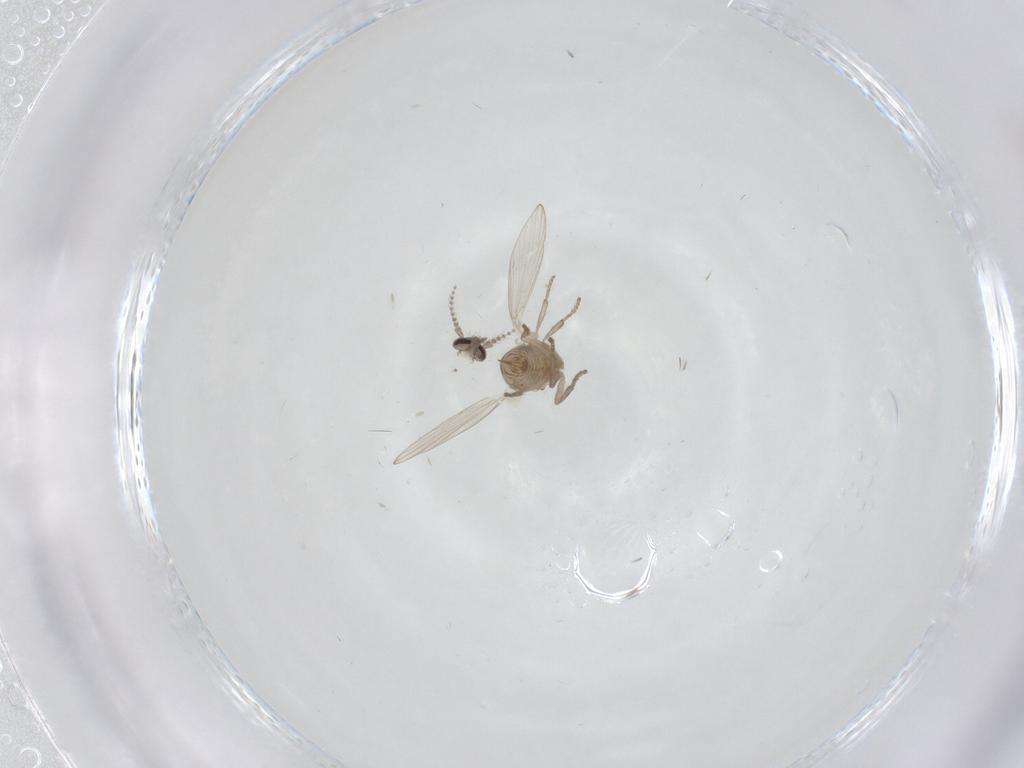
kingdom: Animalia
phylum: Arthropoda
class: Insecta
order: Diptera
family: Psychodidae
